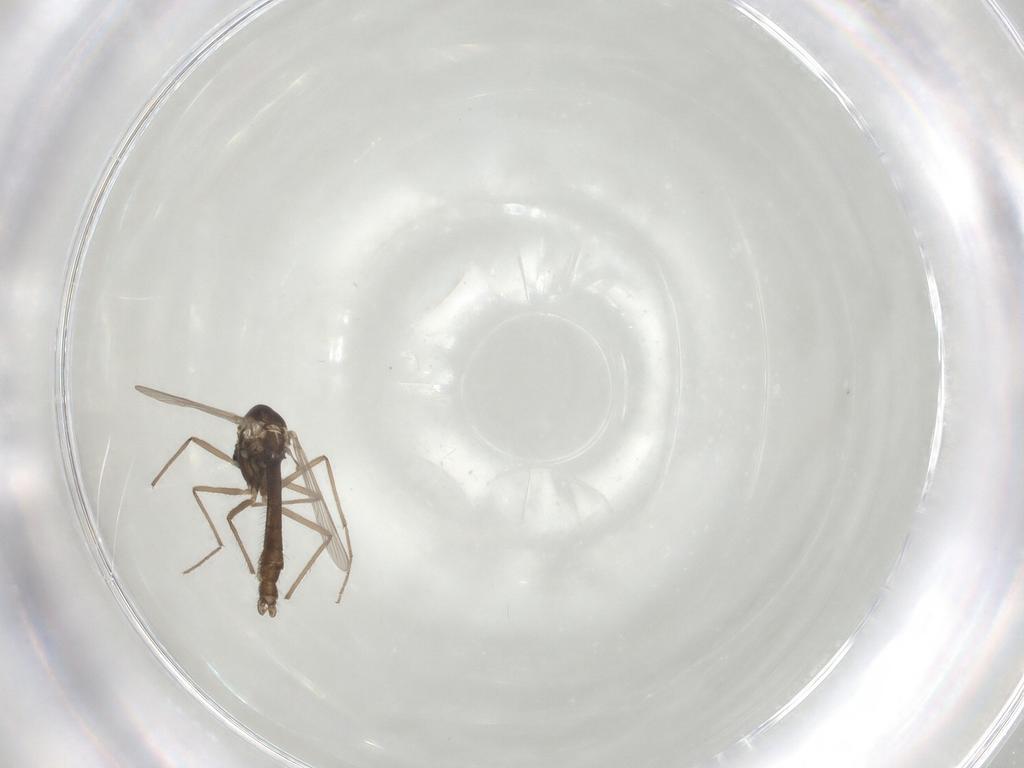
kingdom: Animalia
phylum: Arthropoda
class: Insecta
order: Diptera
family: Chironomidae
